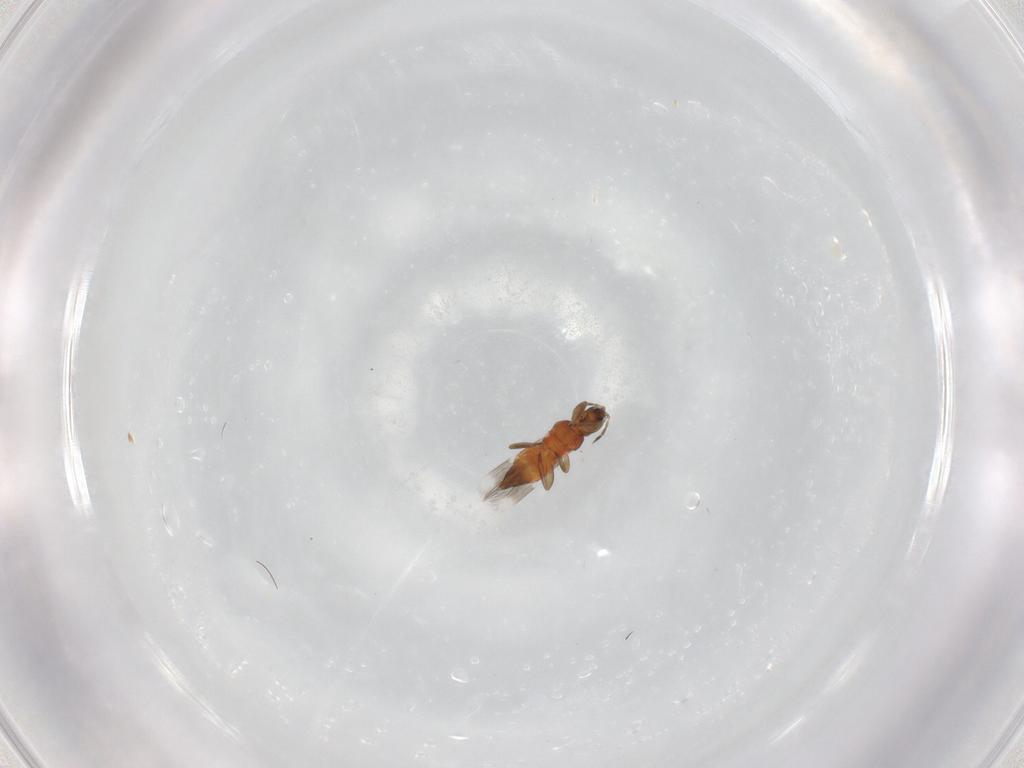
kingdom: Animalia
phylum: Arthropoda
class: Insecta
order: Thysanoptera
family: Aeolothripidae
